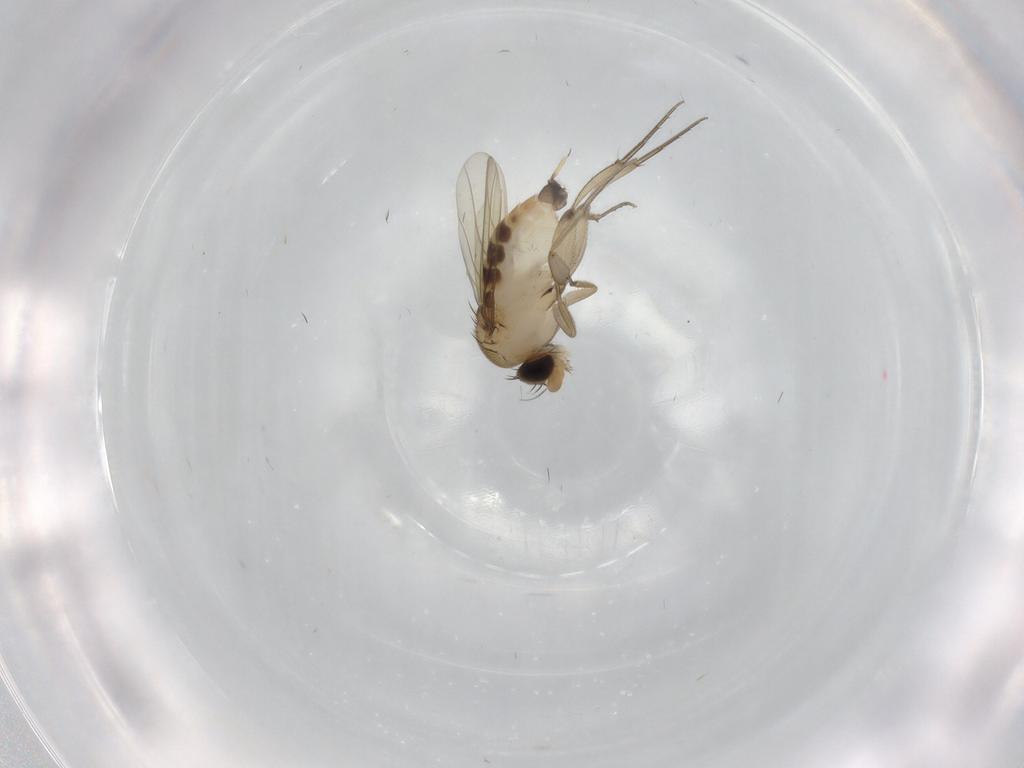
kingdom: Animalia
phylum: Arthropoda
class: Insecta
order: Diptera
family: Phoridae
